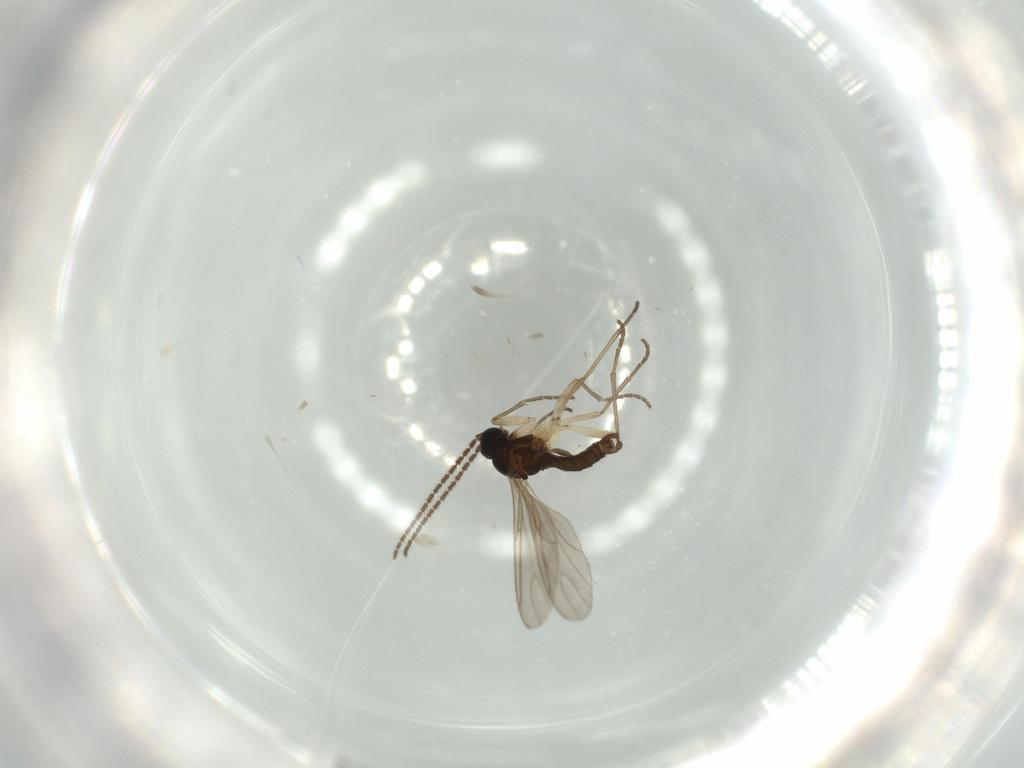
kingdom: Animalia
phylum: Arthropoda
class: Insecta
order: Diptera
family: Sciaridae
